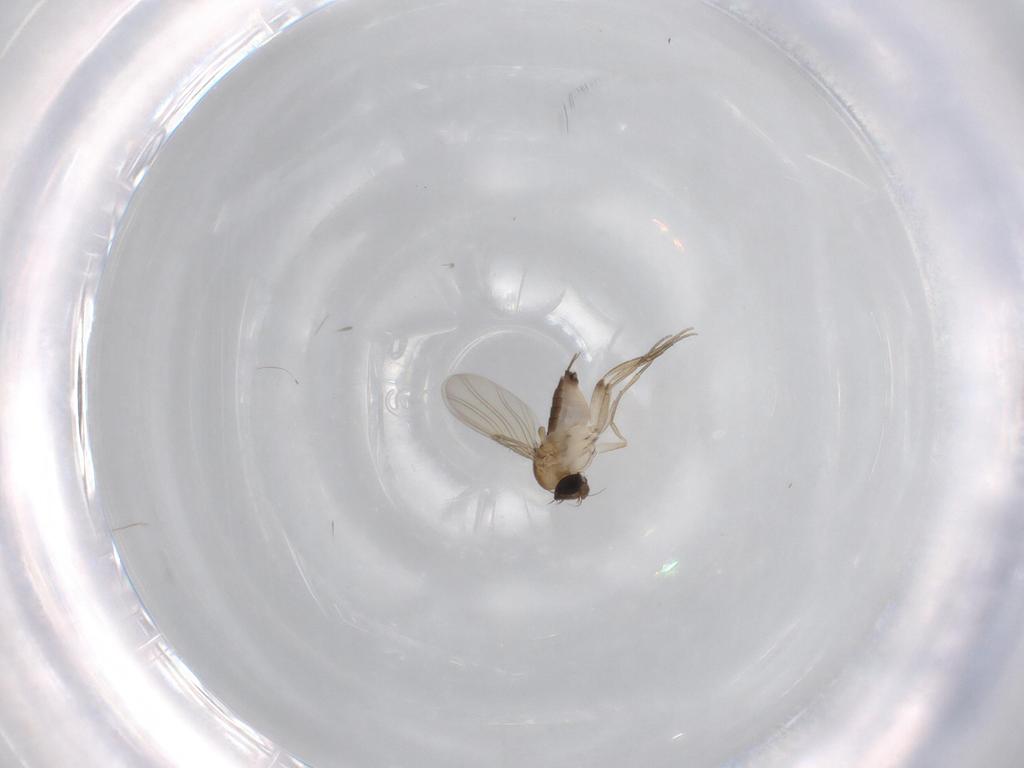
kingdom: Animalia
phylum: Arthropoda
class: Insecta
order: Diptera
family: Phoridae
